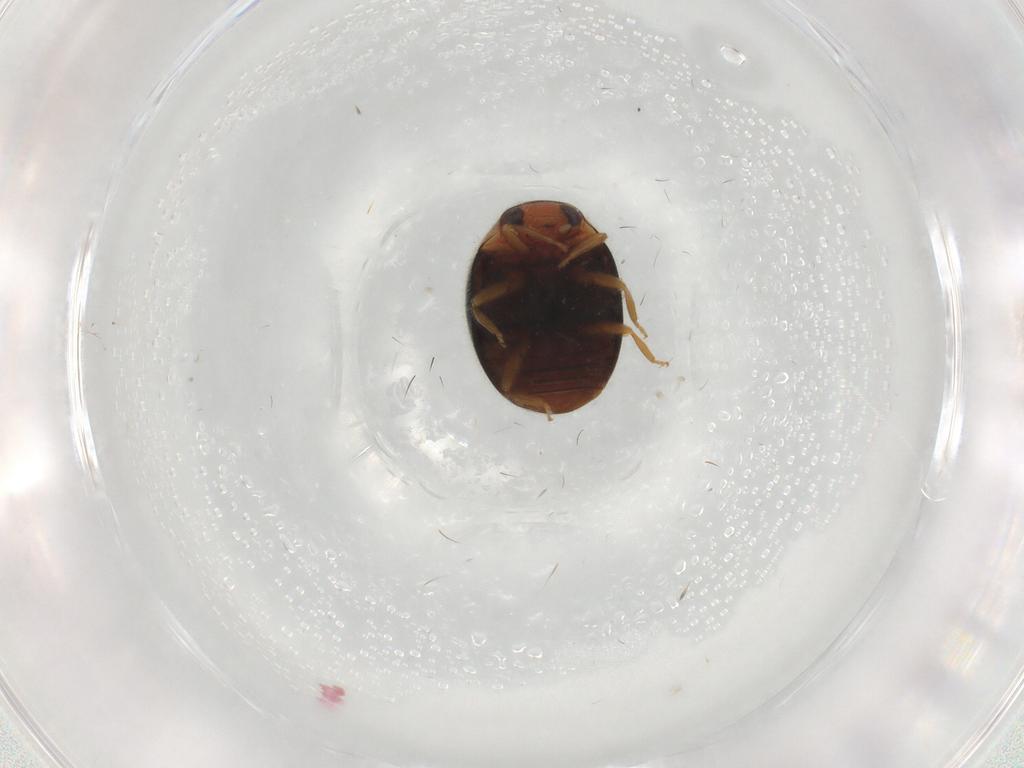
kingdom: Animalia
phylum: Arthropoda
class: Insecta
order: Coleoptera
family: Coccinellidae
